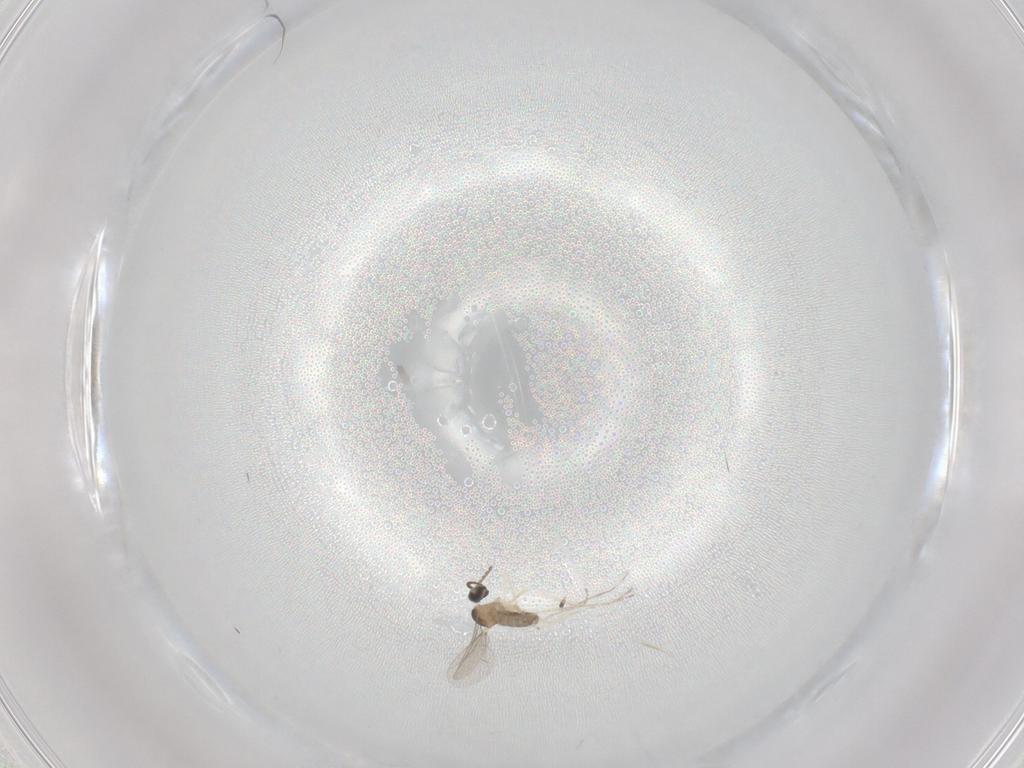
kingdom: Animalia
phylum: Arthropoda
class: Insecta
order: Diptera
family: Cecidomyiidae
